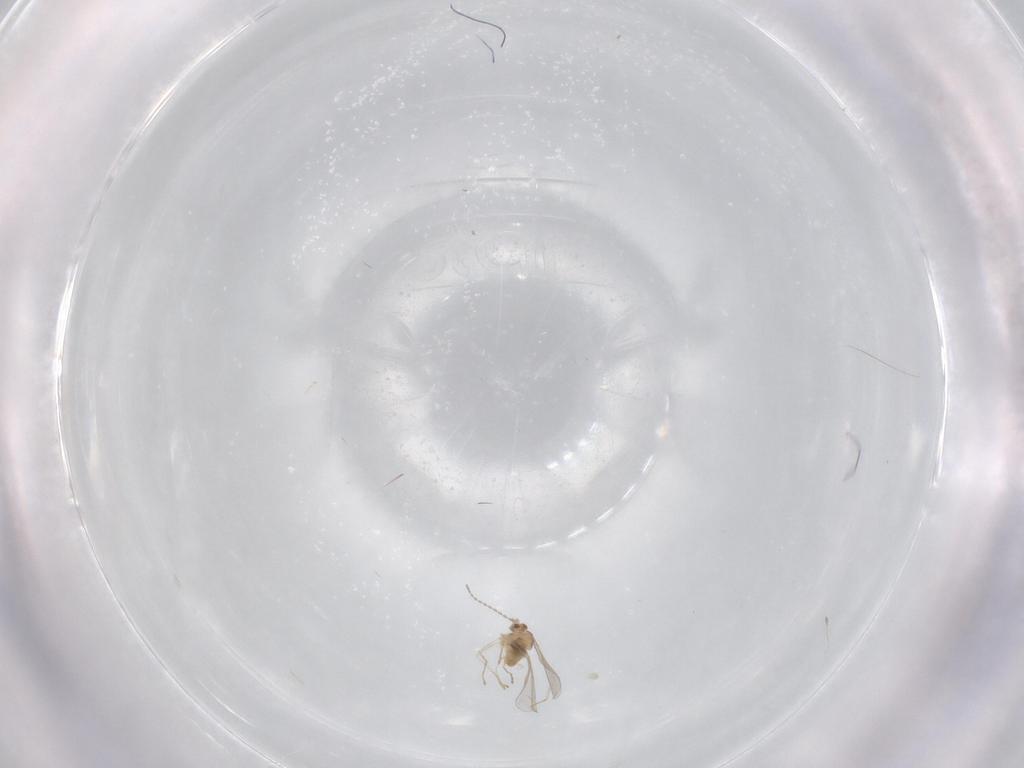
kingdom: Animalia
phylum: Arthropoda
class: Insecta
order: Diptera
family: Cecidomyiidae
